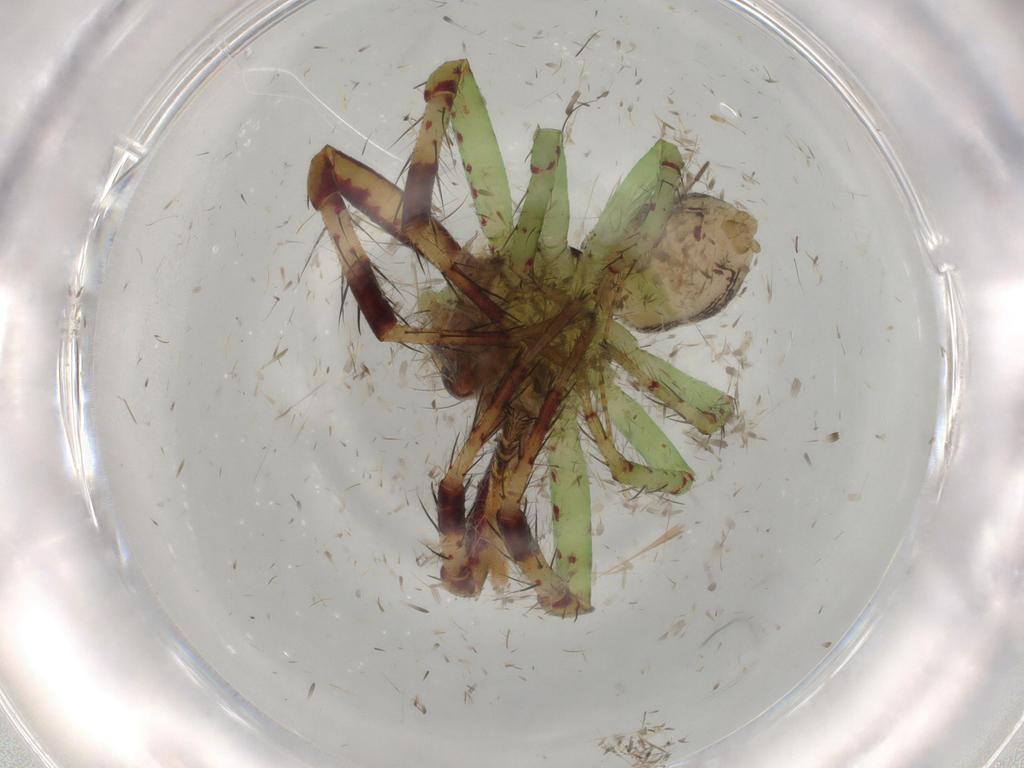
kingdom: Animalia
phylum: Arthropoda
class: Arachnida
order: Araneae
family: Thomisidae
